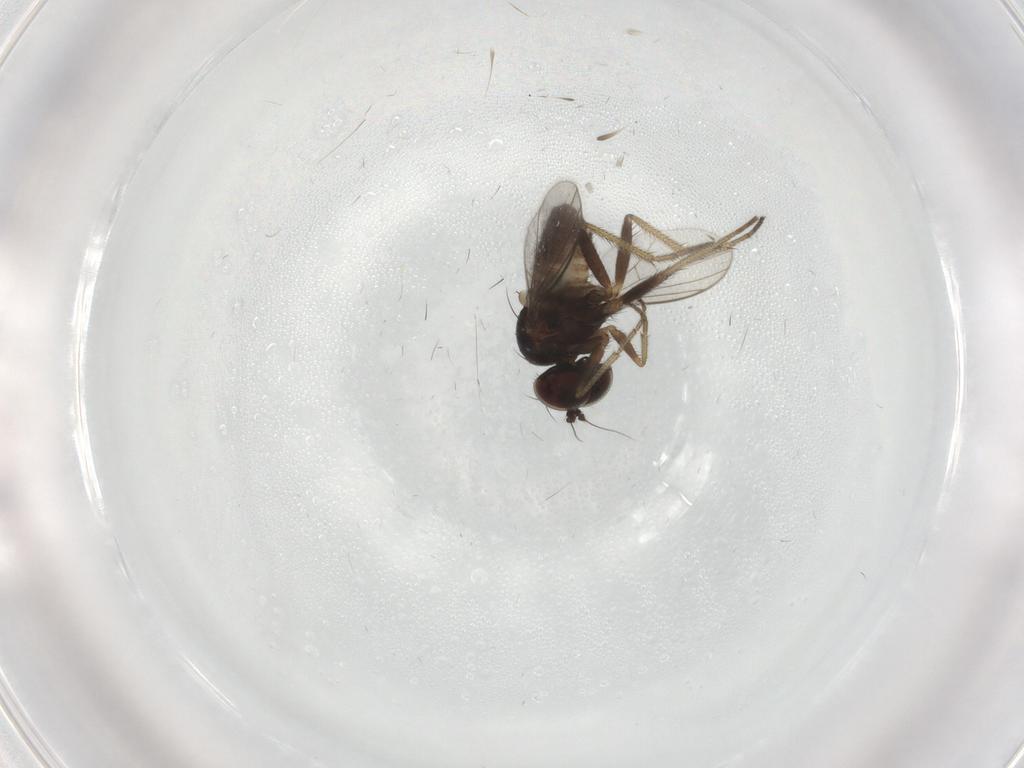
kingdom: Animalia
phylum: Arthropoda
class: Insecta
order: Diptera
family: Dolichopodidae
